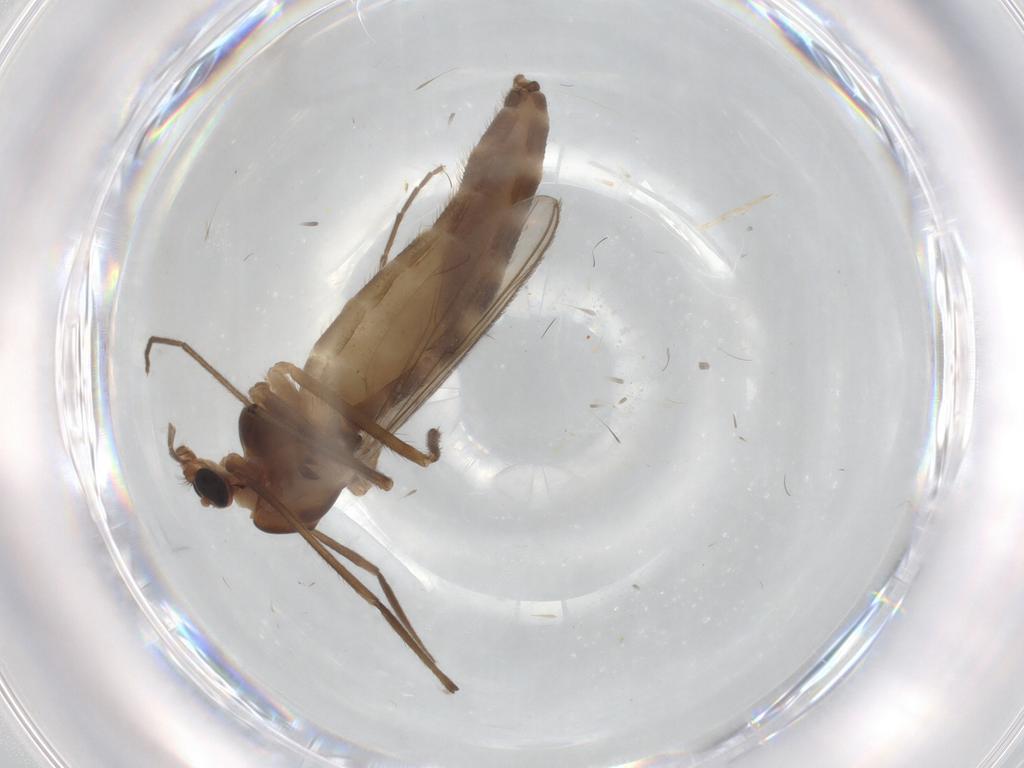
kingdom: Animalia
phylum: Arthropoda
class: Insecta
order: Diptera
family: Chironomidae
